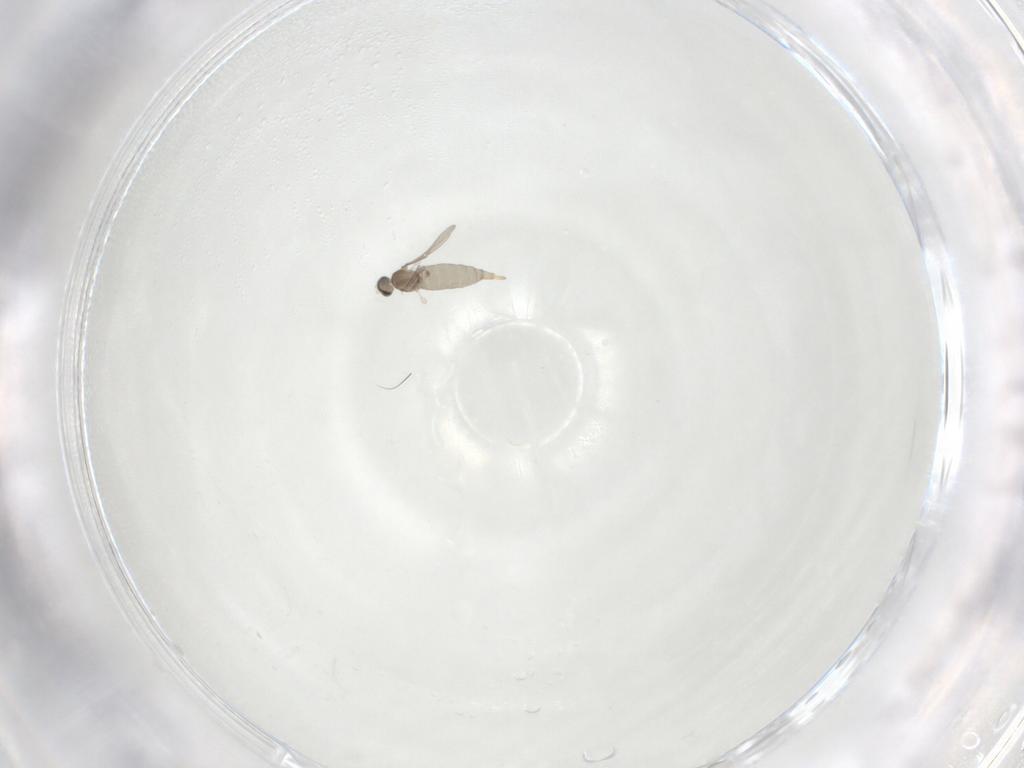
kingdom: Animalia
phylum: Arthropoda
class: Insecta
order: Diptera
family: Cecidomyiidae
